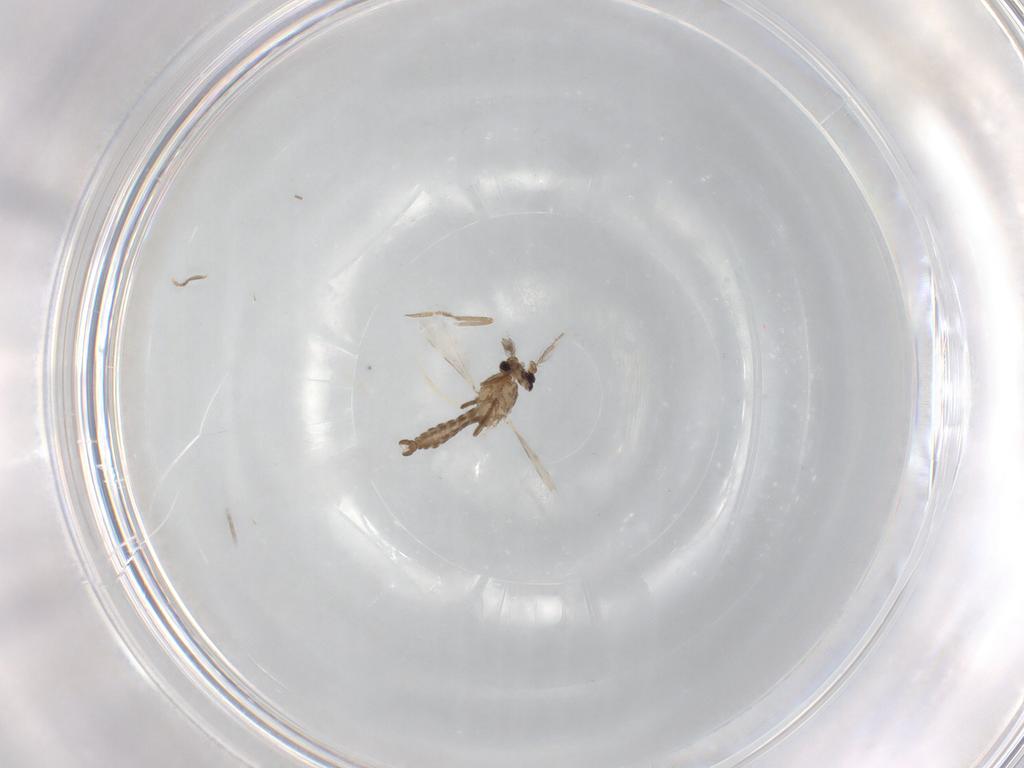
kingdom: Animalia
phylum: Arthropoda
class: Insecta
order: Diptera
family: Ceratopogonidae
